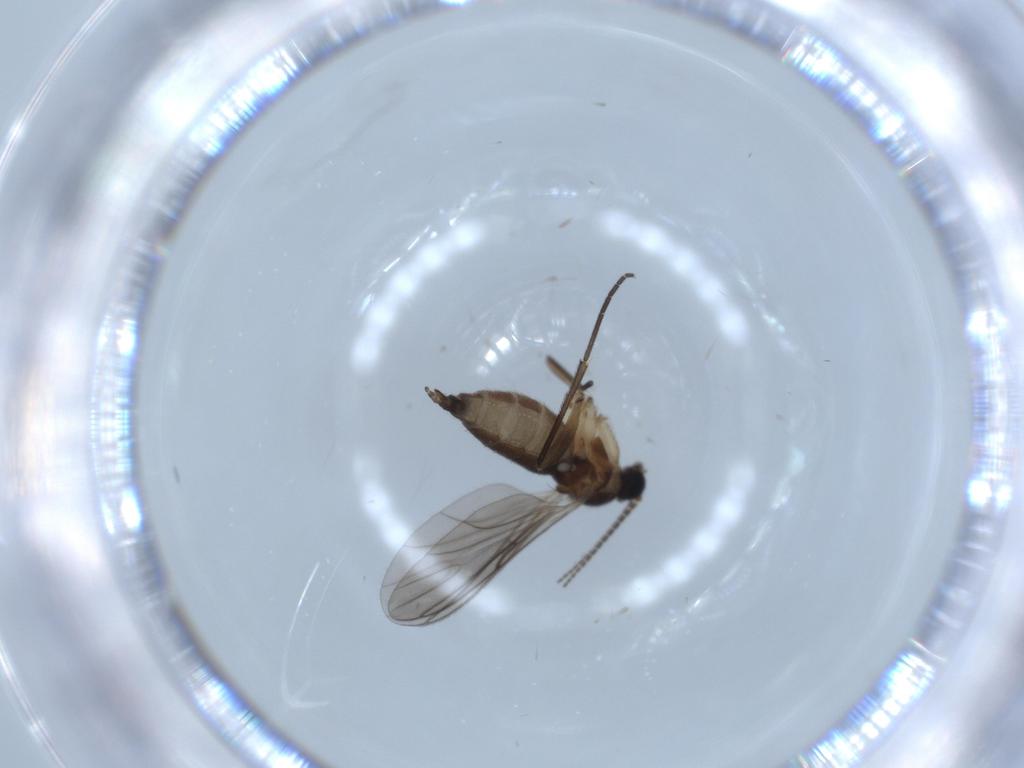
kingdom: Animalia
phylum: Arthropoda
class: Insecta
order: Diptera
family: Sciaridae
